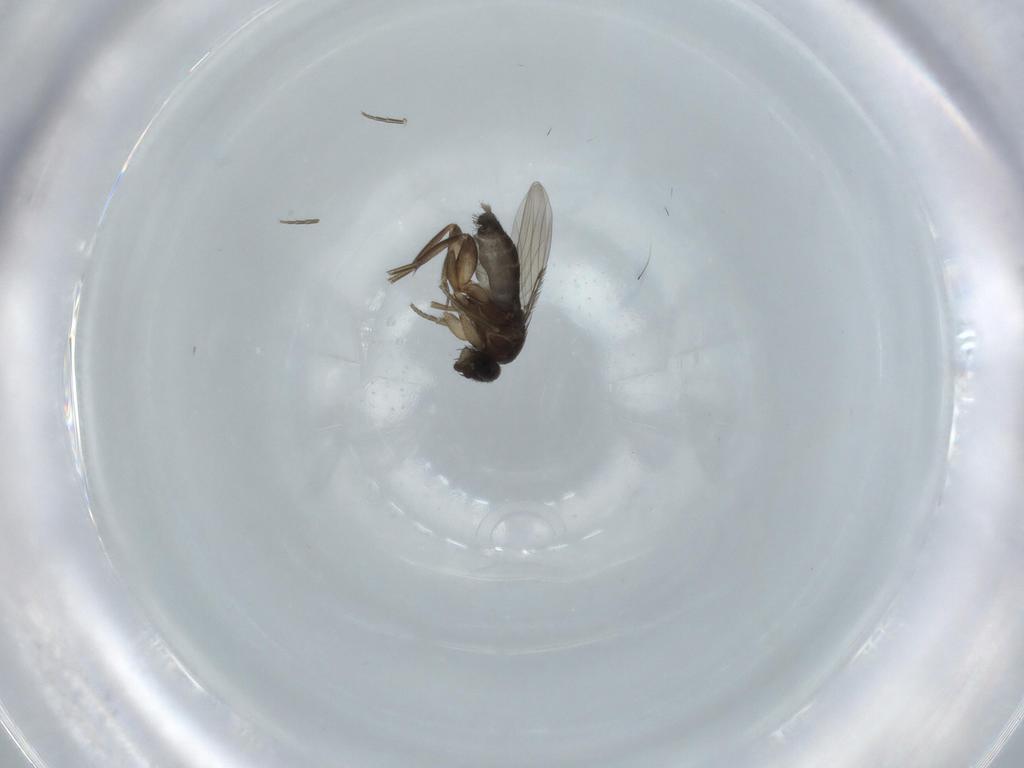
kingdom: Animalia
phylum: Arthropoda
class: Insecta
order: Diptera
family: Phoridae
